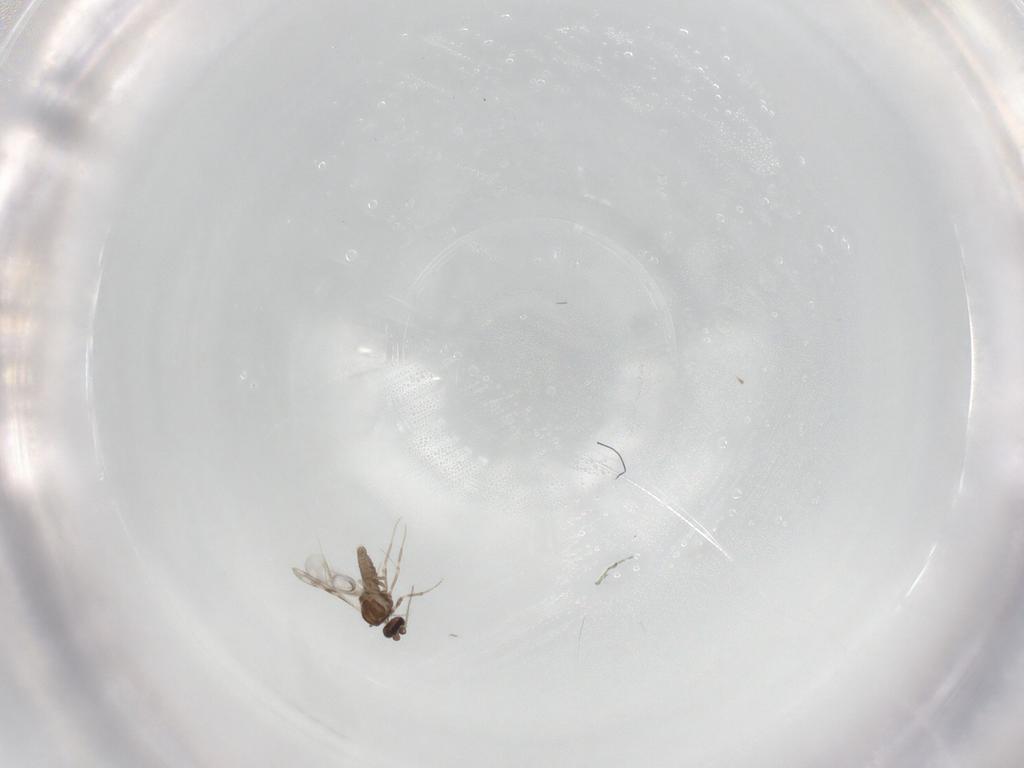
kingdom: Animalia
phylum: Arthropoda
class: Insecta
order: Diptera
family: Ceratopogonidae
